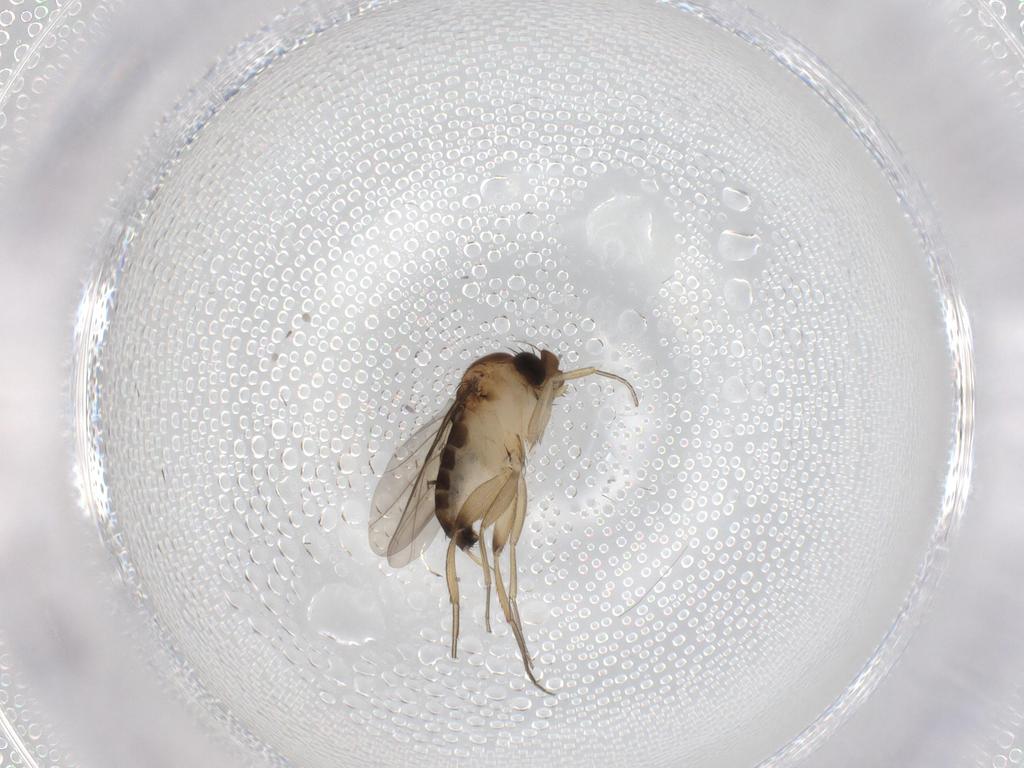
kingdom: Animalia
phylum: Arthropoda
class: Insecta
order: Diptera
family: Phoridae
